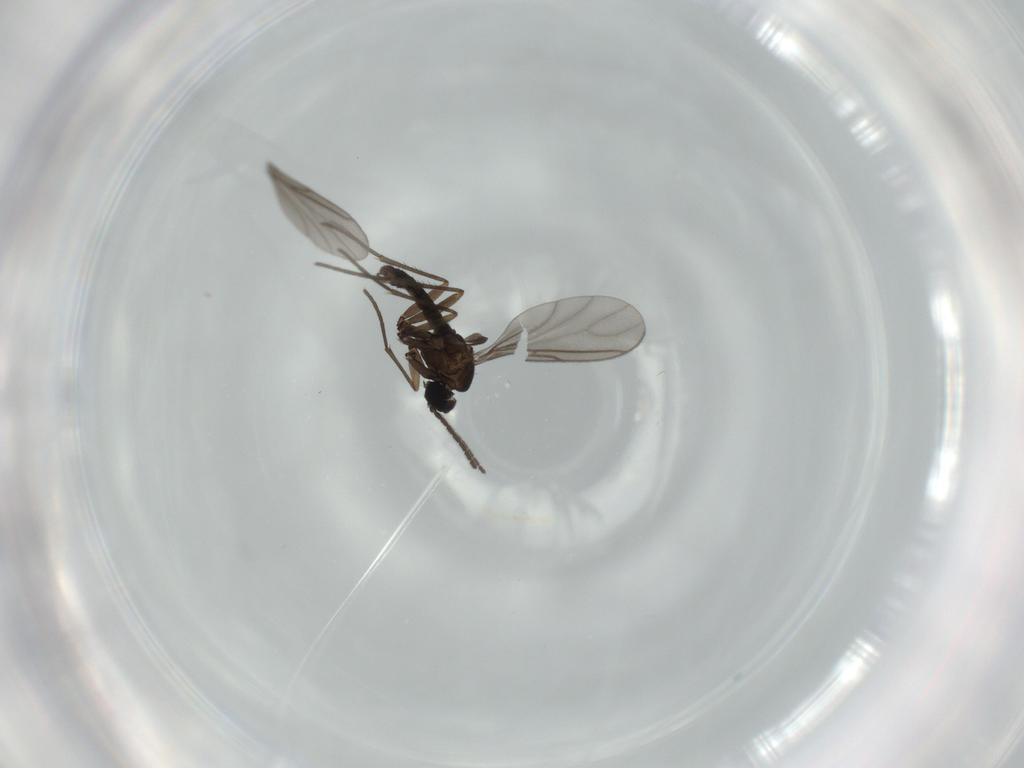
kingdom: Animalia
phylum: Arthropoda
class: Insecta
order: Diptera
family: Sciaridae
